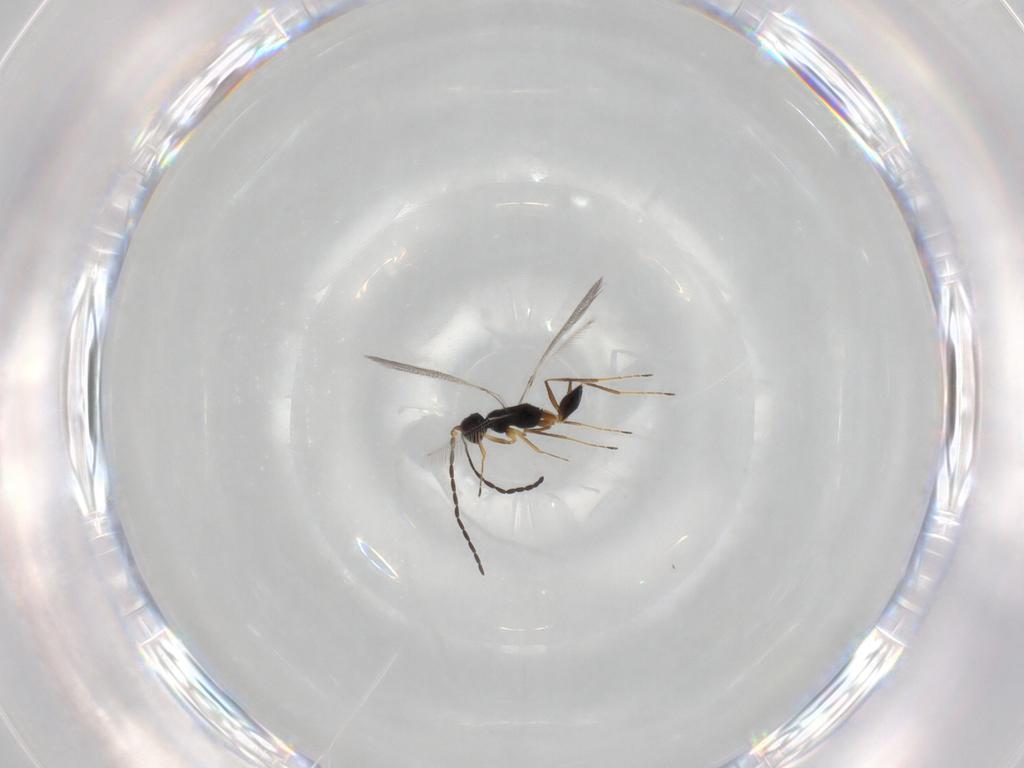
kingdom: Animalia
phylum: Arthropoda
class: Insecta
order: Hymenoptera
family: Mymaridae
